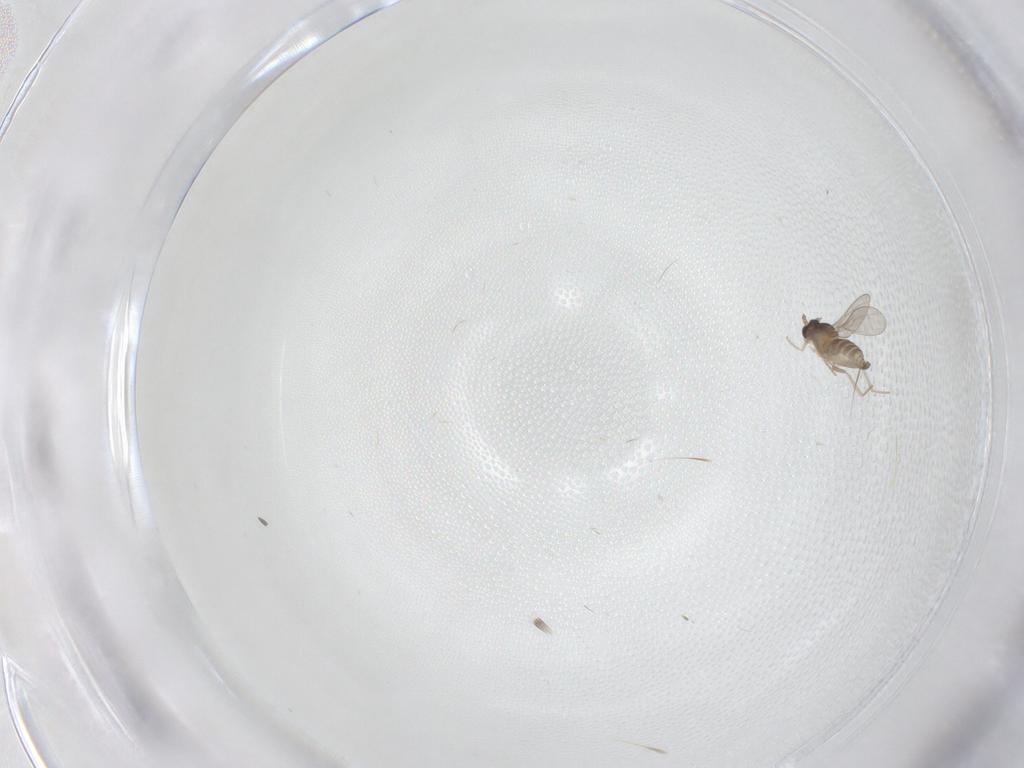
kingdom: Animalia
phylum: Arthropoda
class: Insecta
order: Diptera
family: Cecidomyiidae
